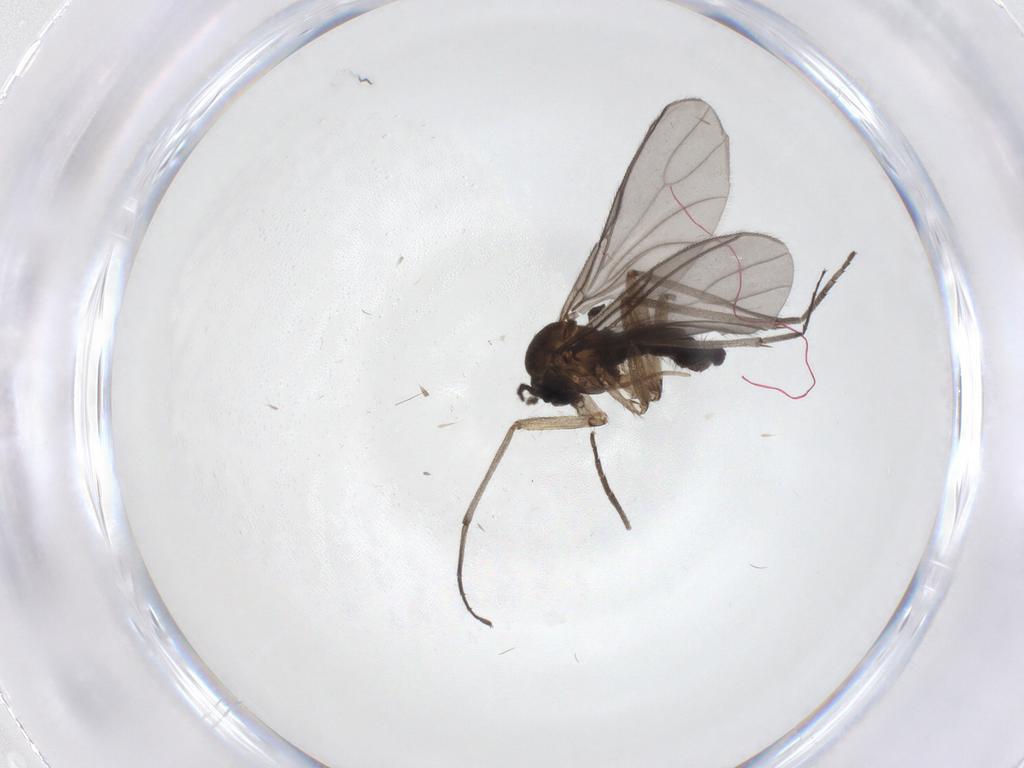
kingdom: Animalia
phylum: Arthropoda
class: Insecta
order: Diptera
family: Sciaridae
